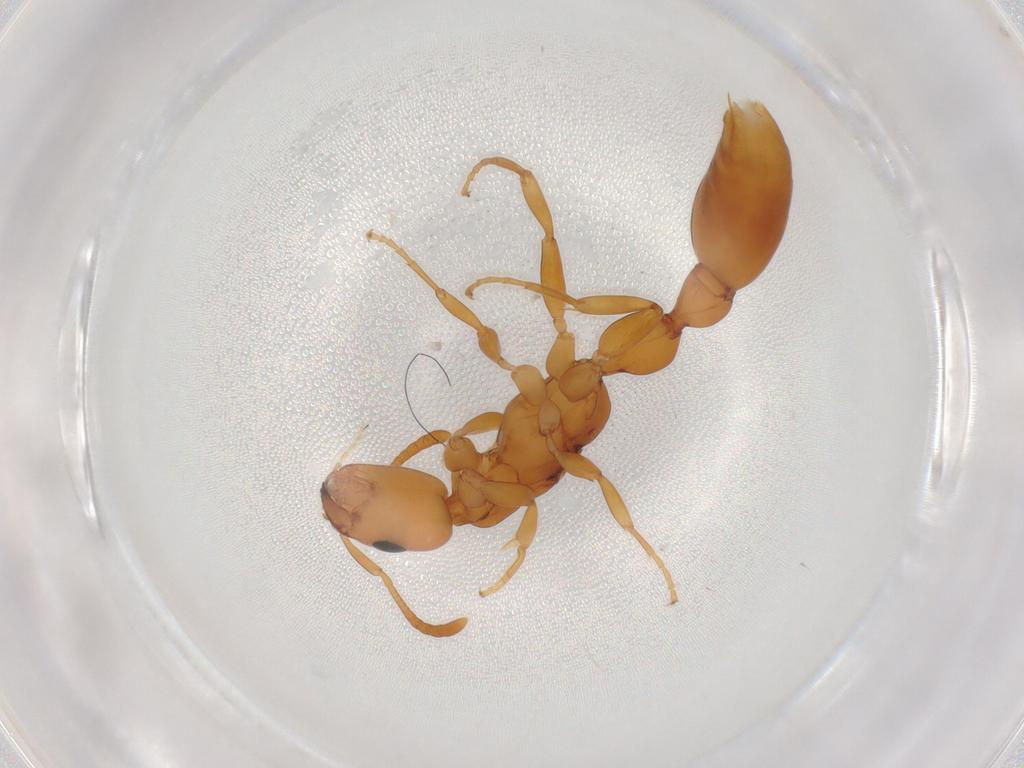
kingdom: Animalia
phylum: Arthropoda
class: Insecta
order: Hymenoptera
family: Formicidae
